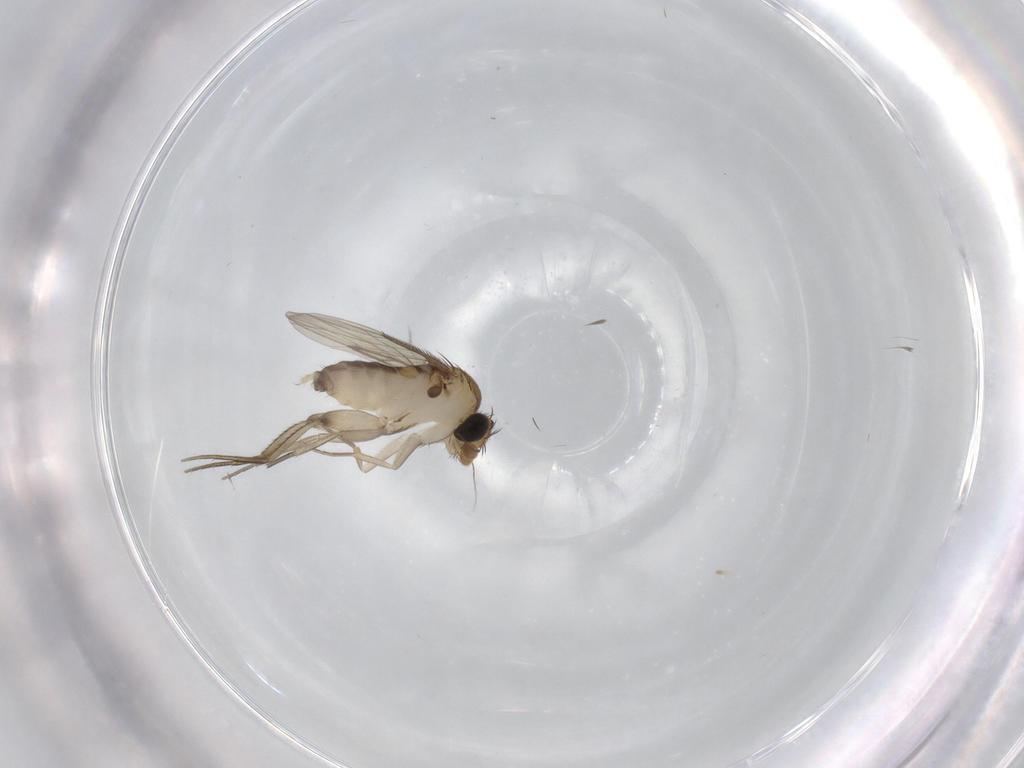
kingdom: Animalia
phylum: Arthropoda
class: Insecta
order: Diptera
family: Phoridae
